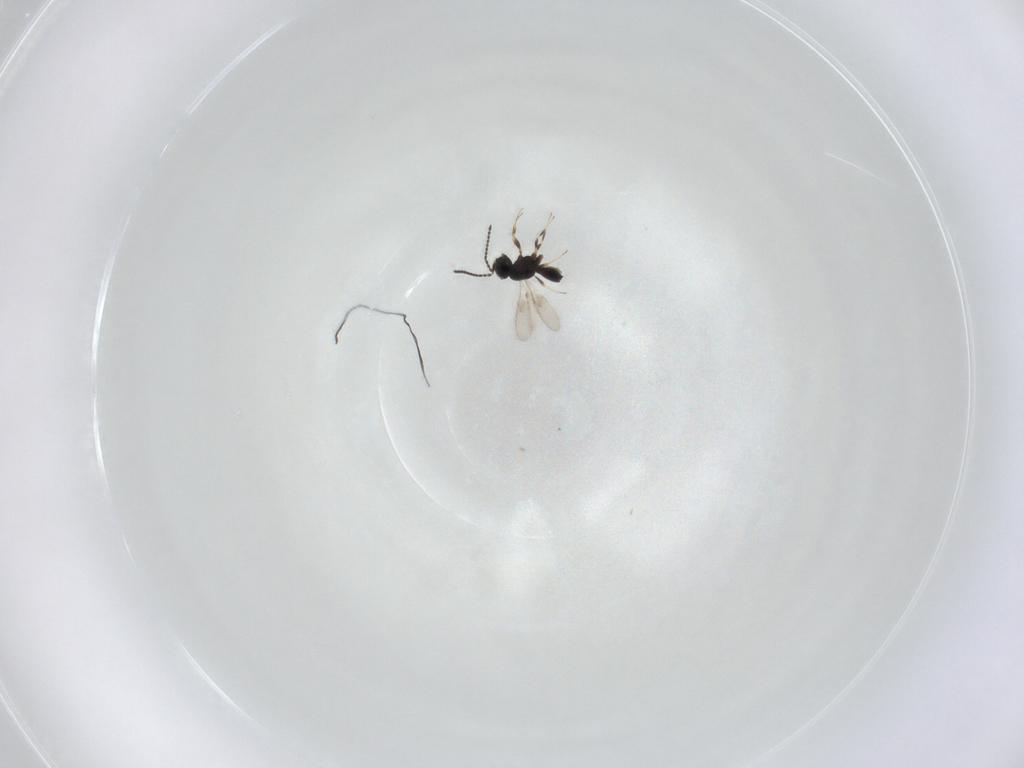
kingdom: Animalia
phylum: Arthropoda
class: Insecta
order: Hymenoptera
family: Scelionidae
